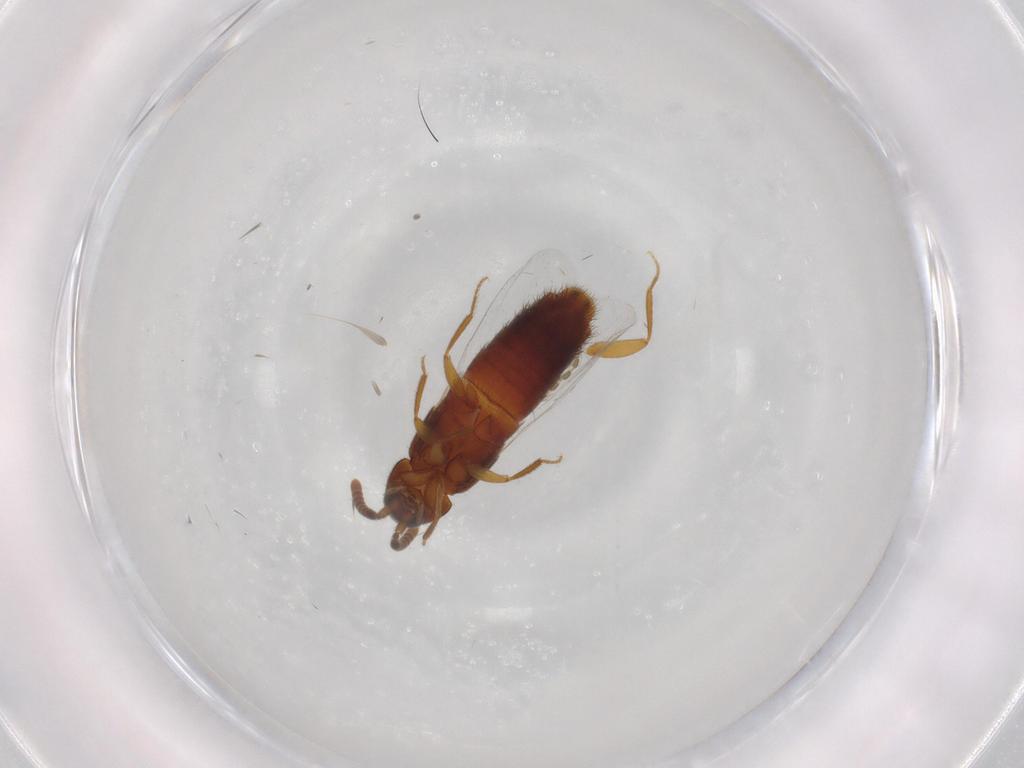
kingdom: Animalia
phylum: Arthropoda
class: Insecta
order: Coleoptera
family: Staphylinidae
